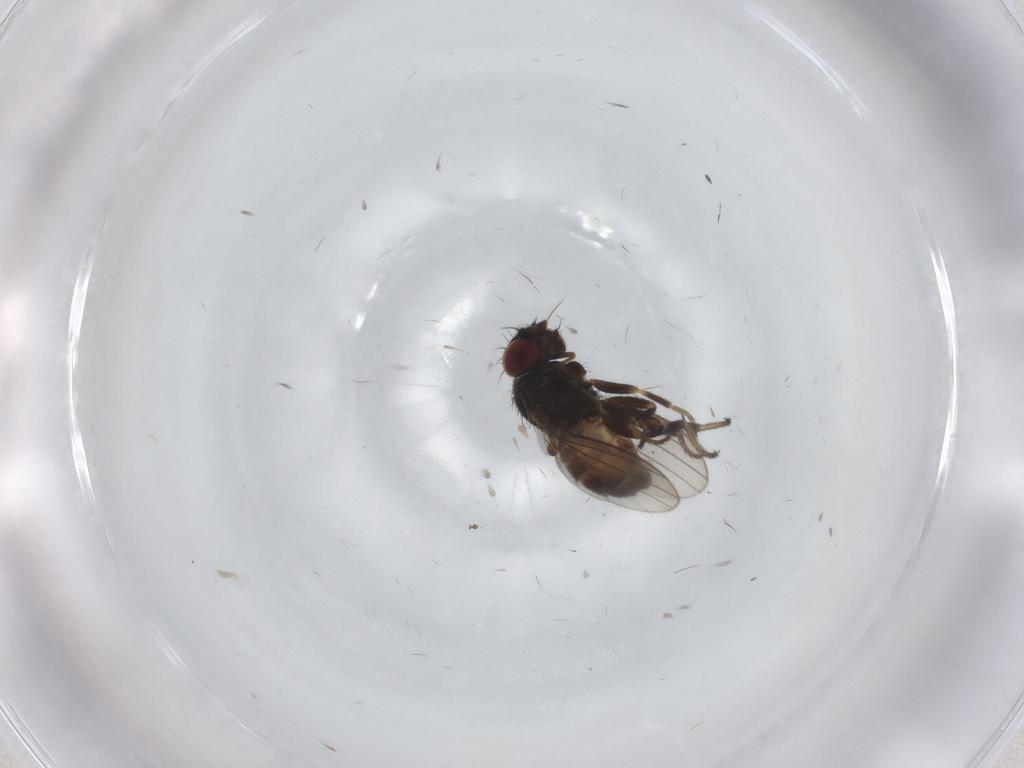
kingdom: Animalia
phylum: Arthropoda
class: Insecta
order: Diptera
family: Milichiidae
